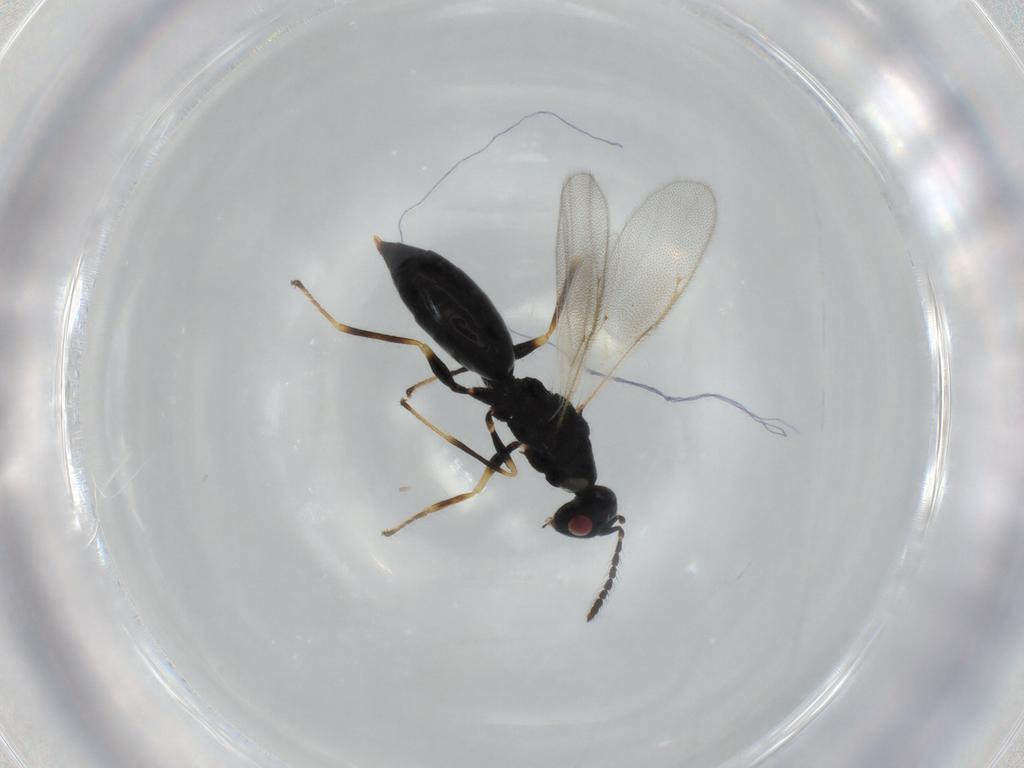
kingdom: Animalia
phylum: Arthropoda
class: Insecta
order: Hymenoptera
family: Eurytomidae
